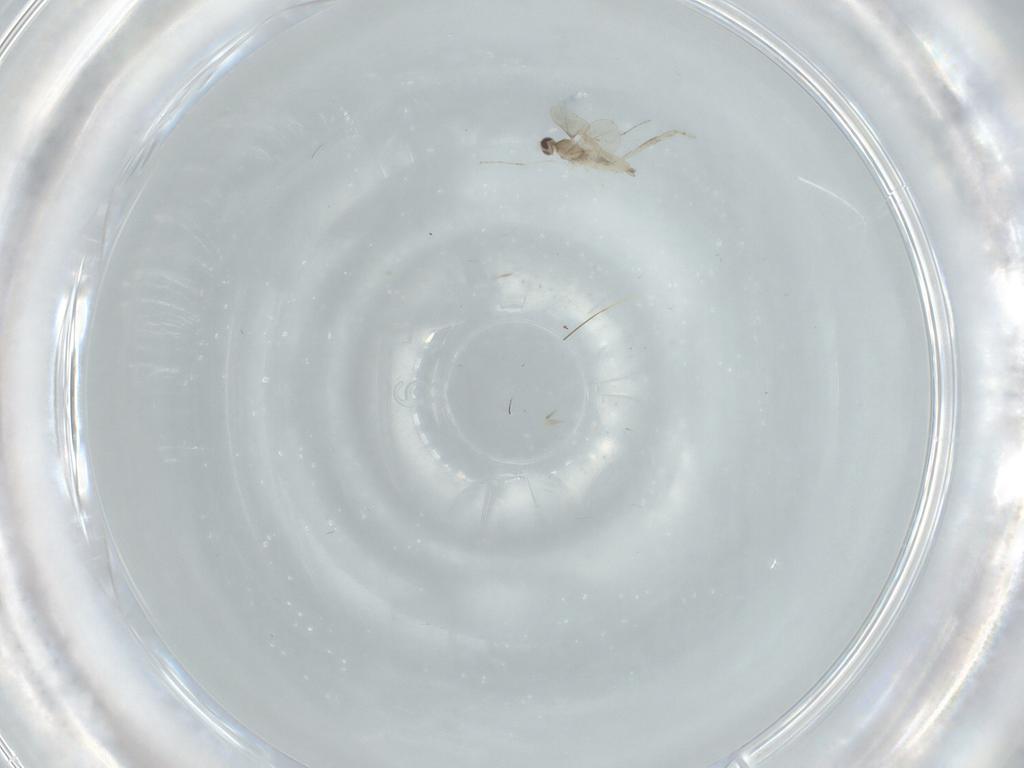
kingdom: Animalia
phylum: Arthropoda
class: Insecta
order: Diptera
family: Cecidomyiidae
